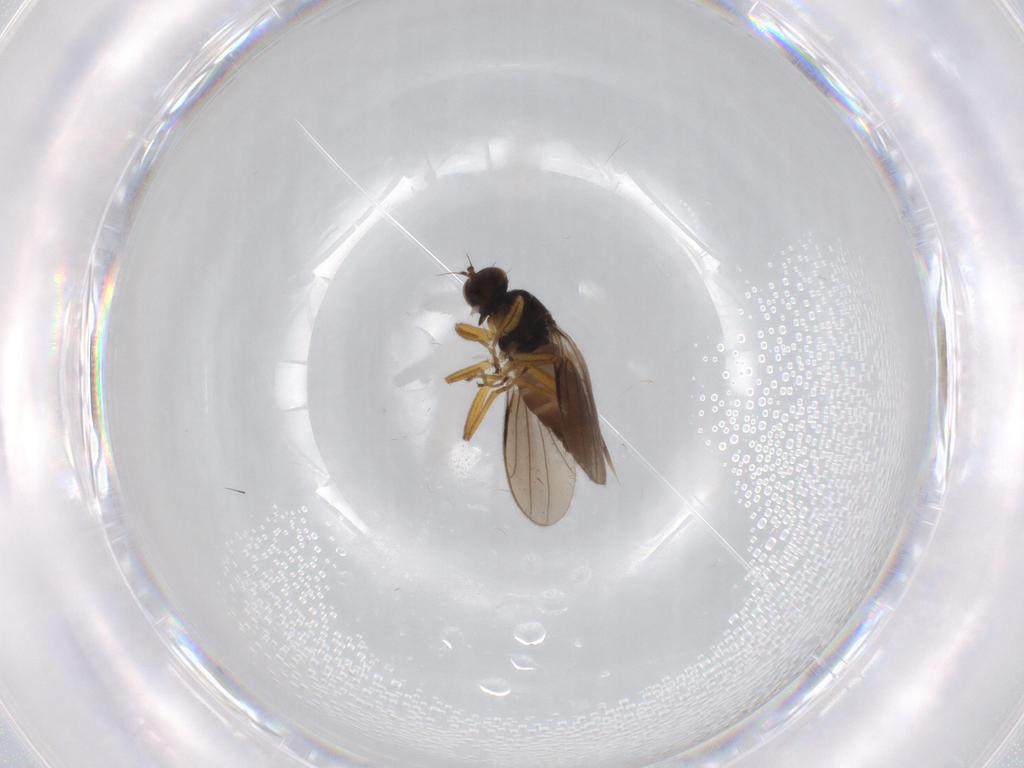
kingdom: Animalia
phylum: Arthropoda
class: Insecta
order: Diptera
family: Hybotidae
